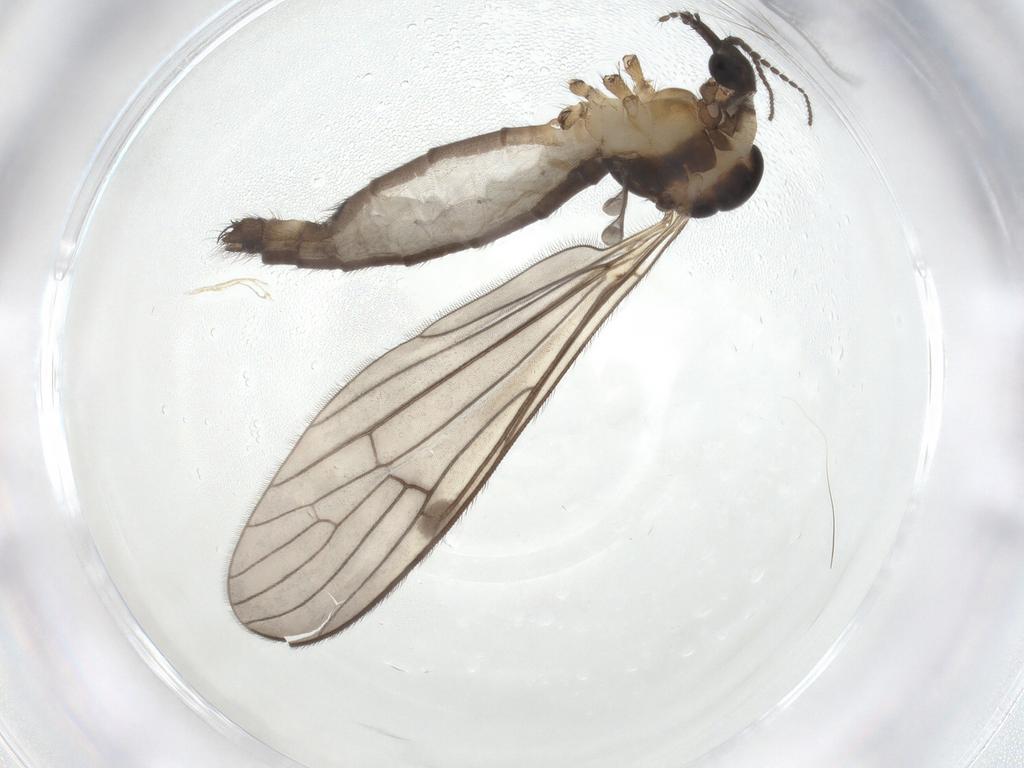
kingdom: Animalia
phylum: Arthropoda
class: Insecta
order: Diptera
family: Limoniidae
